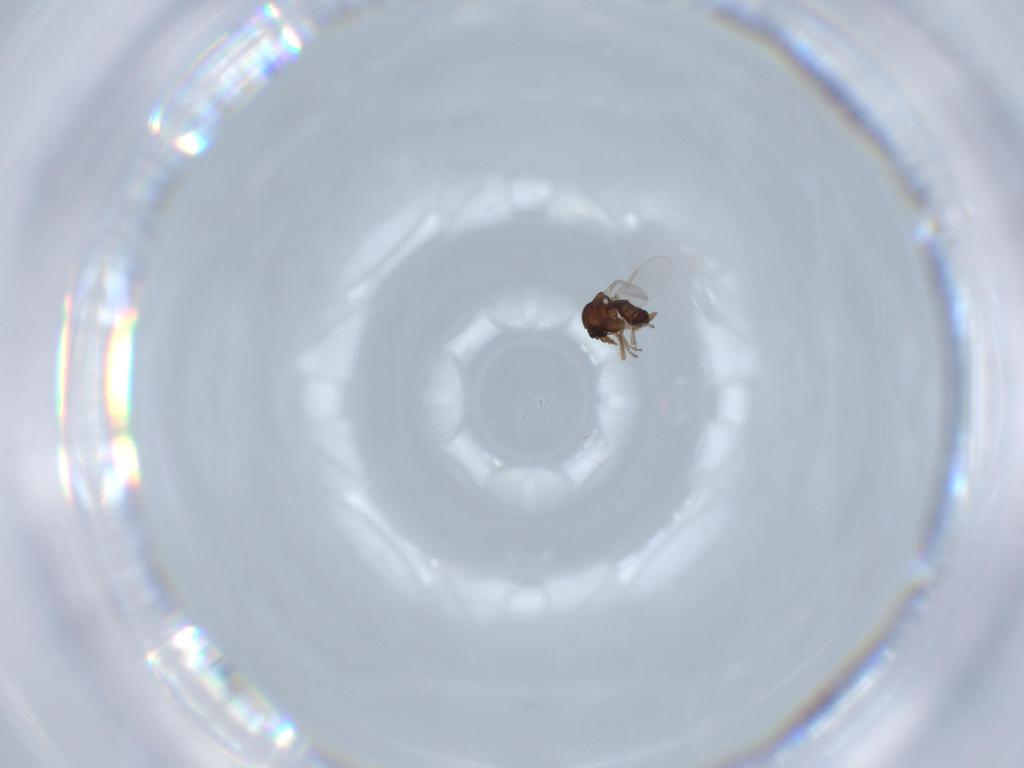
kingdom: Animalia
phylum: Arthropoda
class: Insecta
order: Diptera
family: Ceratopogonidae
